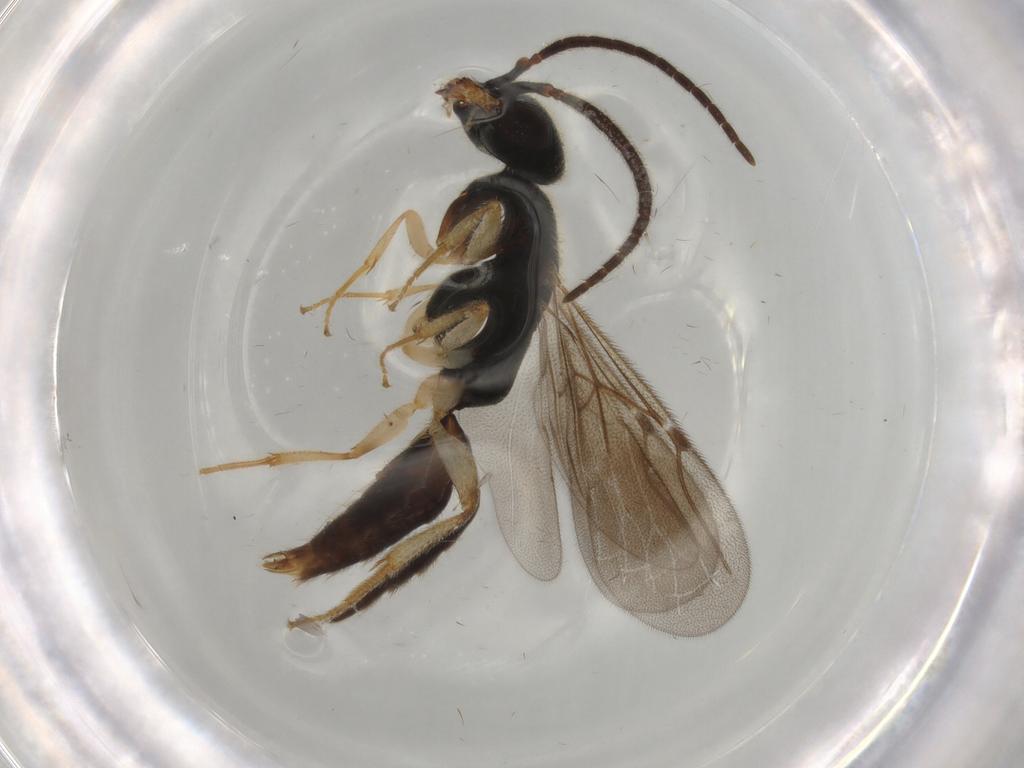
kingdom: Animalia
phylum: Arthropoda
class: Insecta
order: Hymenoptera
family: Bethylidae
